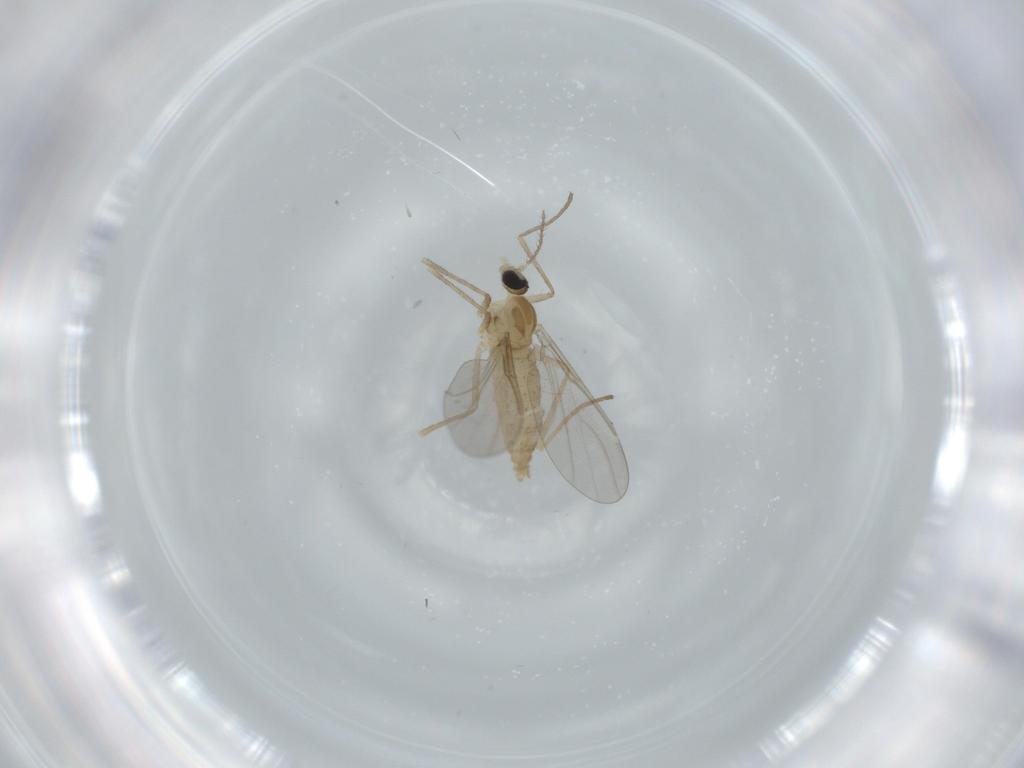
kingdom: Animalia
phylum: Arthropoda
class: Insecta
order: Diptera
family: Cecidomyiidae
